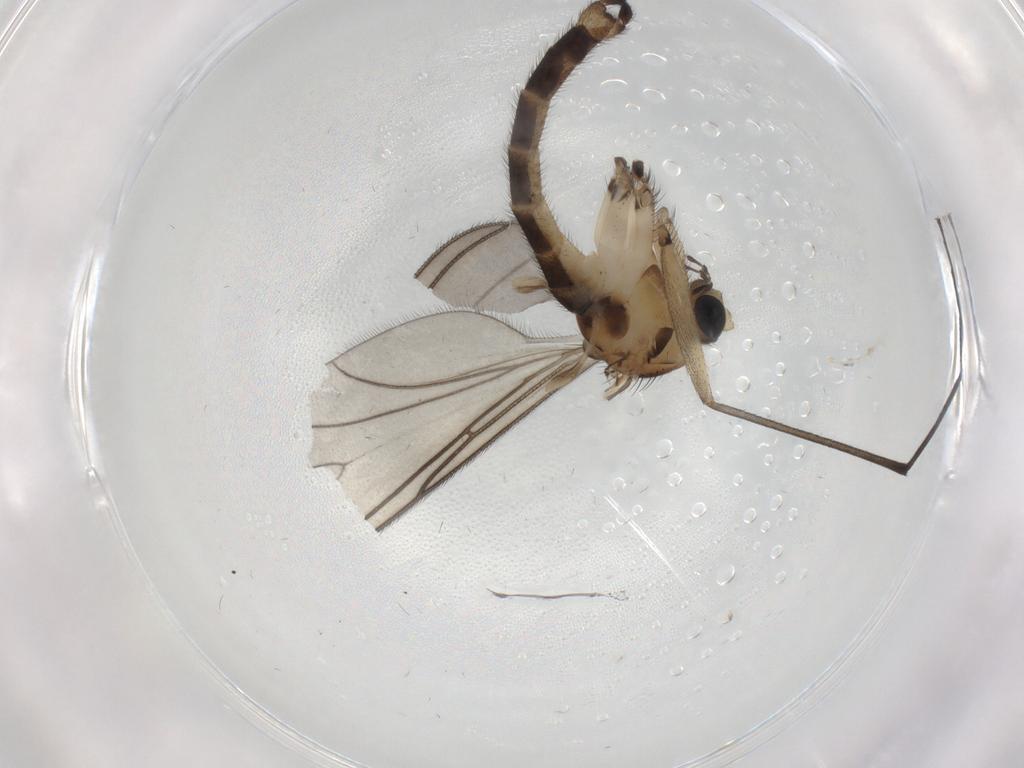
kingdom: Animalia
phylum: Arthropoda
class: Insecta
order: Diptera
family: Sciaridae
